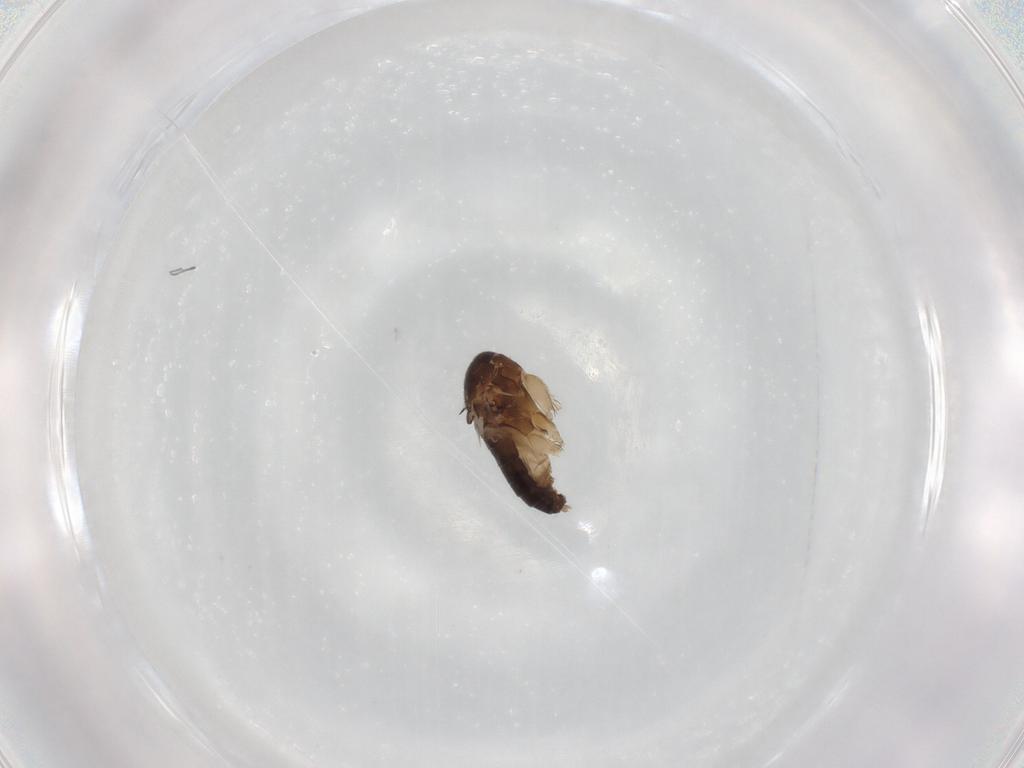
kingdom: Animalia
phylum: Arthropoda
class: Insecta
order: Diptera
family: Phoridae
